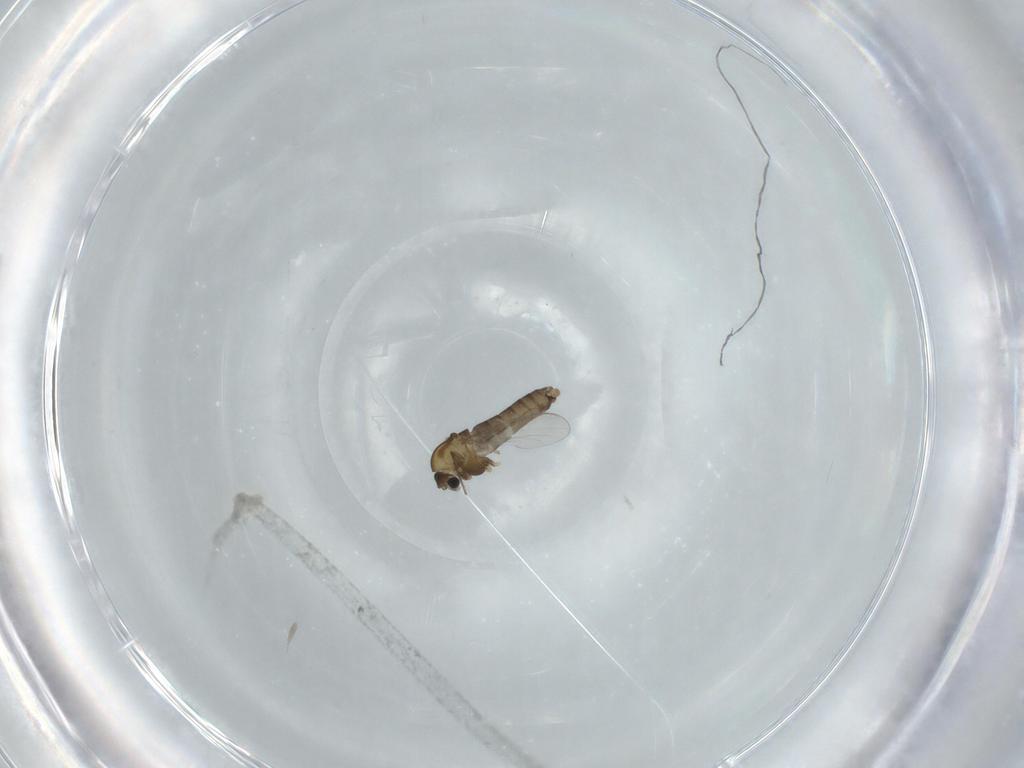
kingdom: Animalia
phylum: Arthropoda
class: Insecta
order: Diptera
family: Chironomidae
